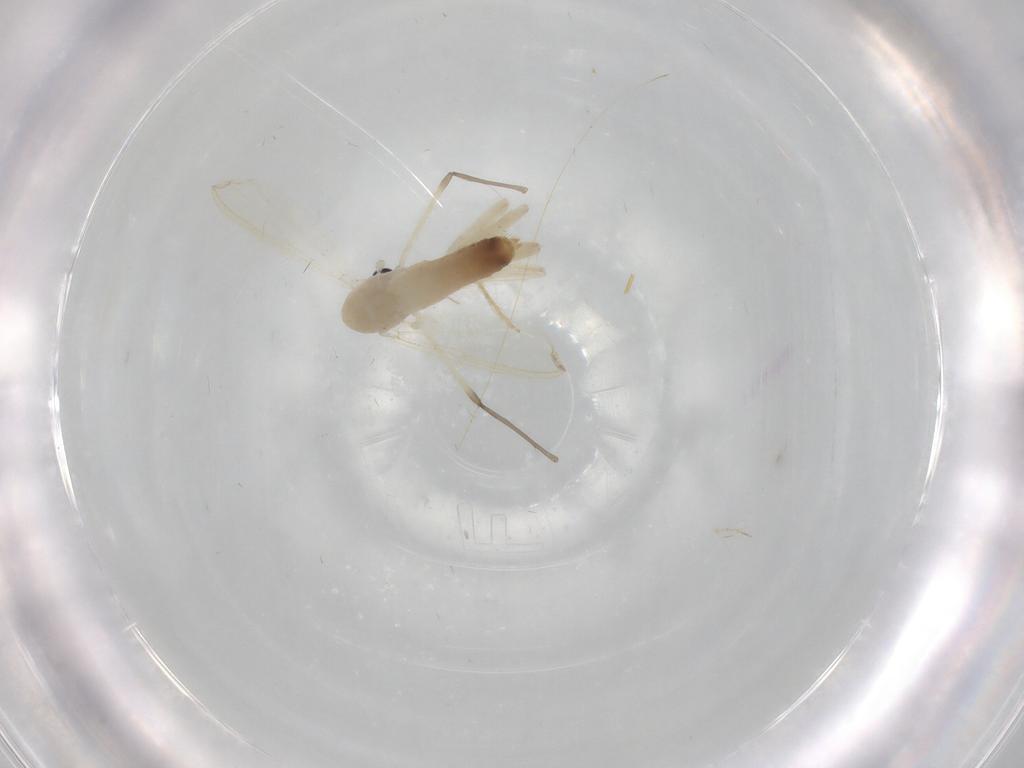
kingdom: Animalia
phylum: Arthropoda
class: Insecta
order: Diptera
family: Chironomidae
